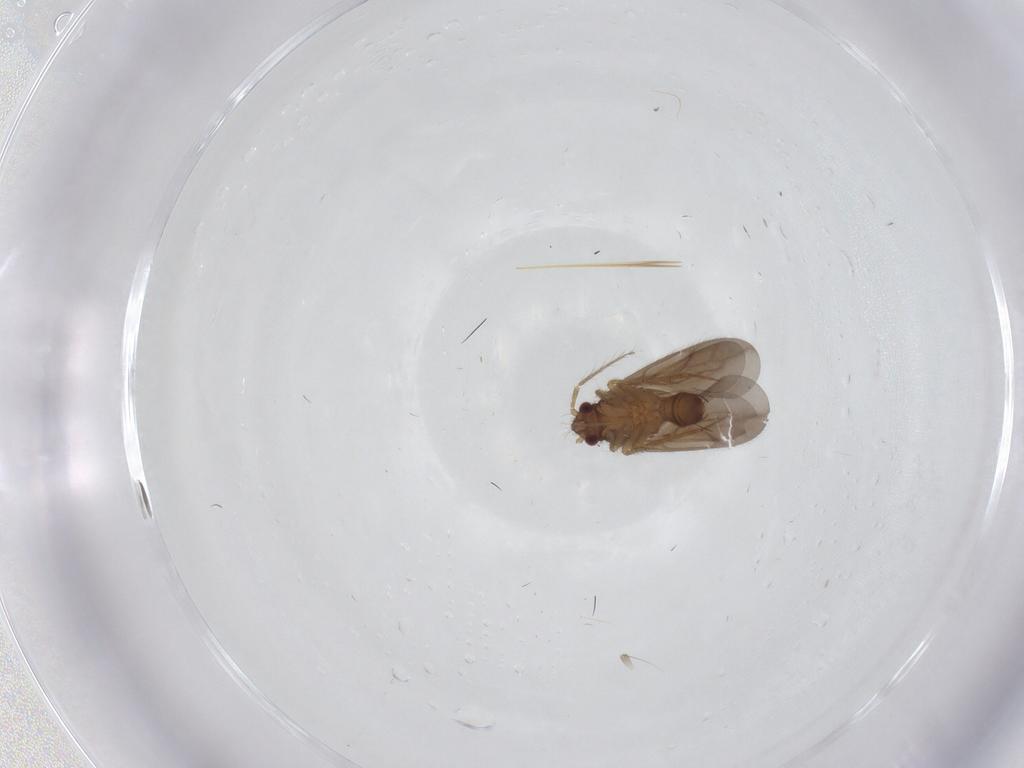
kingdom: Animalia
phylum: Arthropoda
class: Insecta
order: Hemiptera
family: Ceratocombidae
